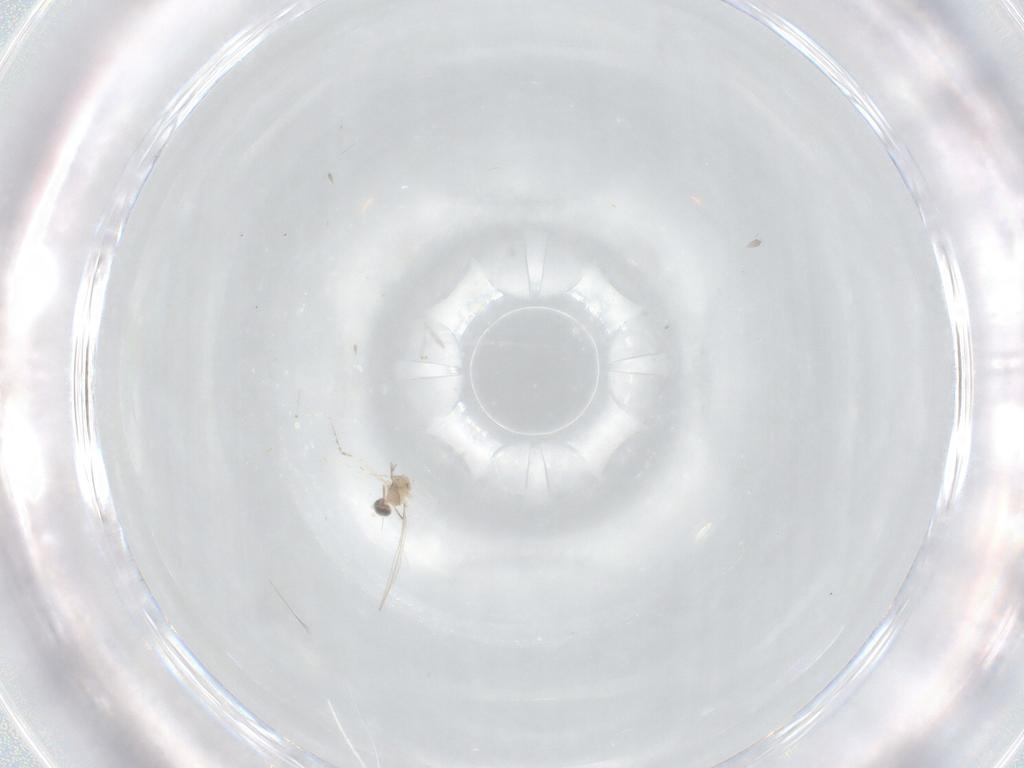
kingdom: Animalia
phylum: Arthropoda
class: Insecta
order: Diptera
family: Cecidomyiidae
